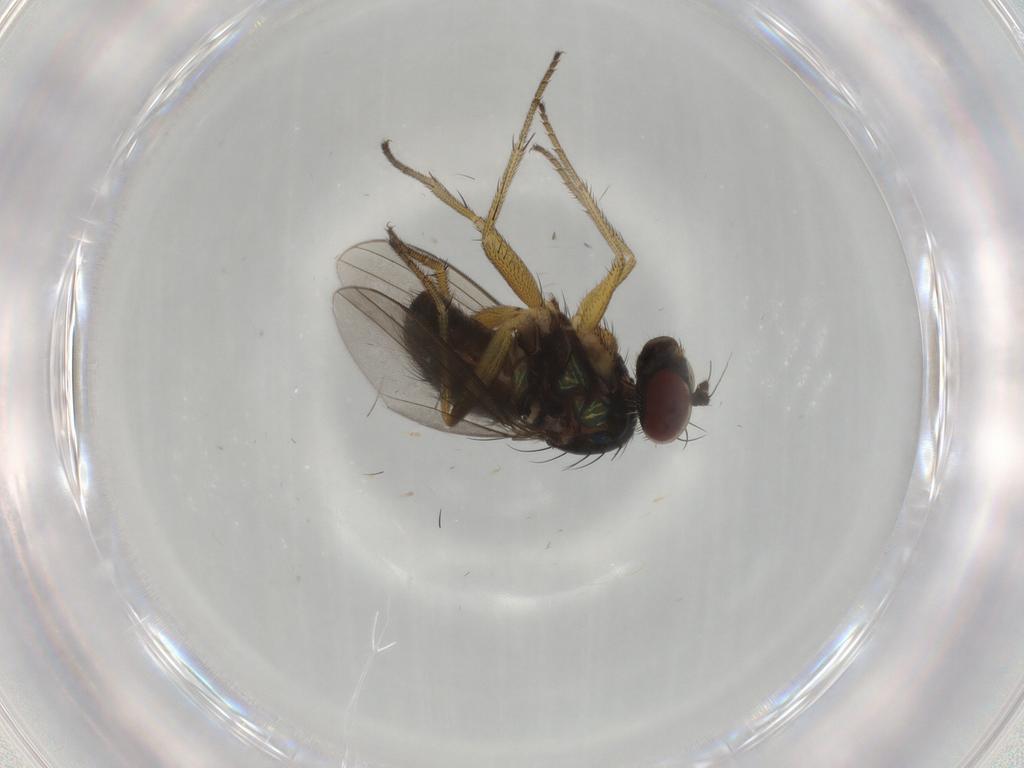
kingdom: Animalia
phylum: Arthropoda
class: Insecta
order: Diptera
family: Dolichopodidae
